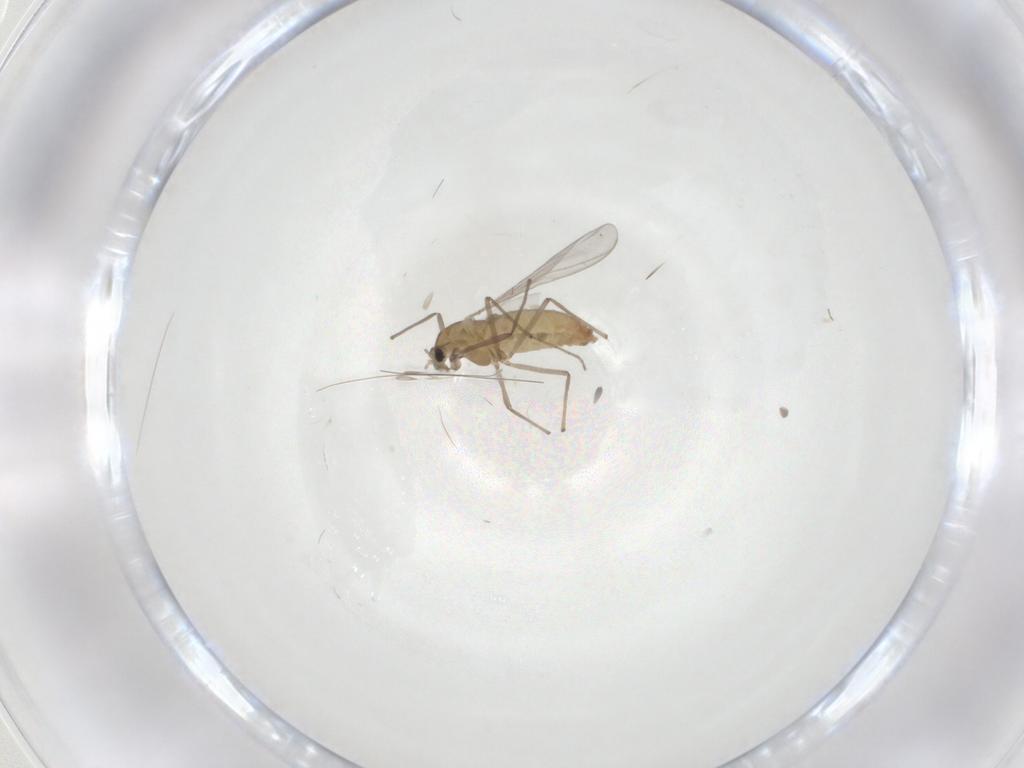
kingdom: Animalia
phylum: Arthropoda
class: Insecta
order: Diptera
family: Chironomidae
